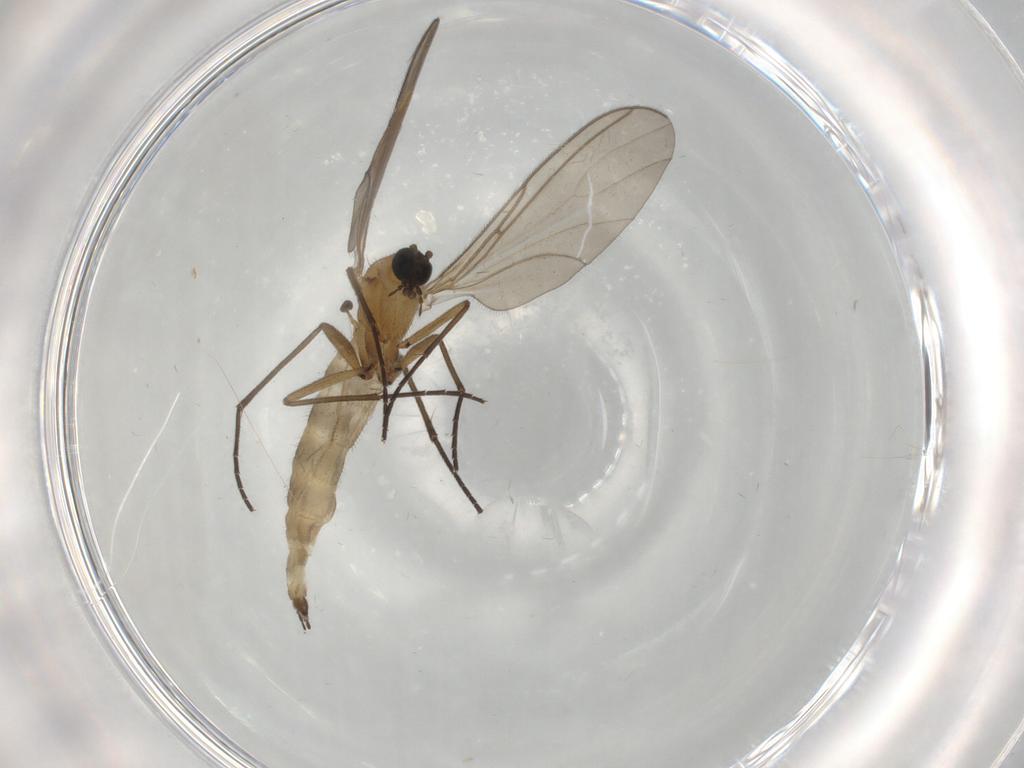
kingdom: Animalia
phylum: Arthropoda
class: Insecta
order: Diptera
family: Sciaridae
